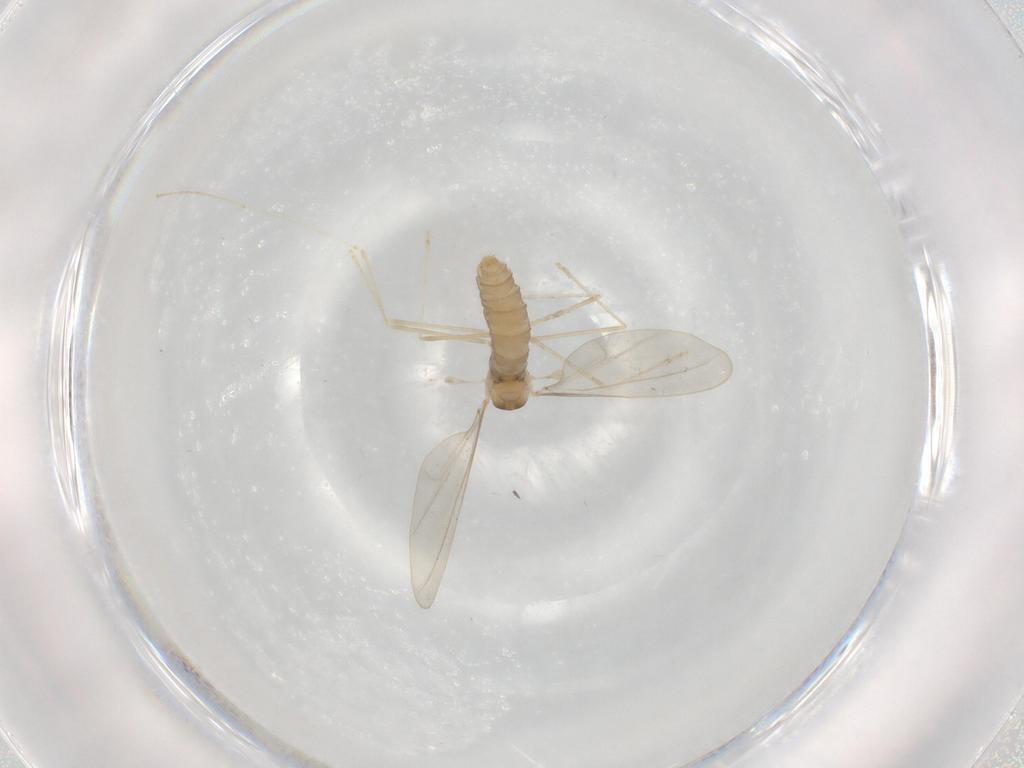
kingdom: Animalia
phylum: Arthropoda
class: Insecta
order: Diptera
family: Cecidomyiidae
